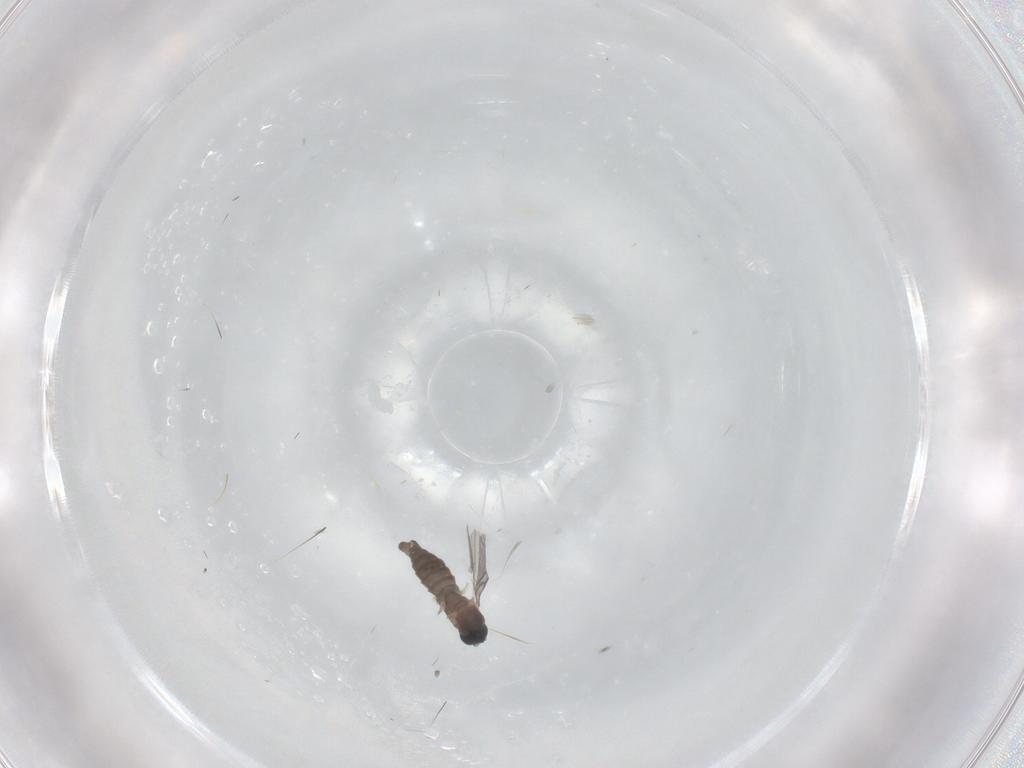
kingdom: Animalia
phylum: Arthropoda
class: Insecta
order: Diptera
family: Sciaridae
